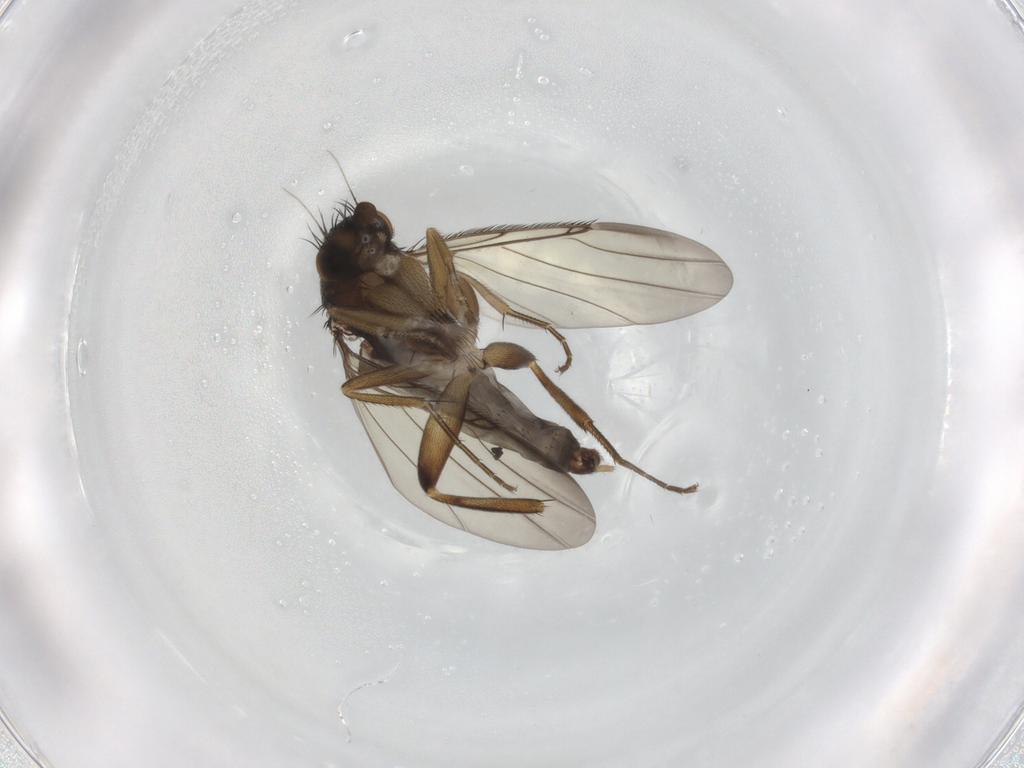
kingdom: Animalia
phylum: Arthropoda
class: Insecta
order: Diptera
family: Phoridae
